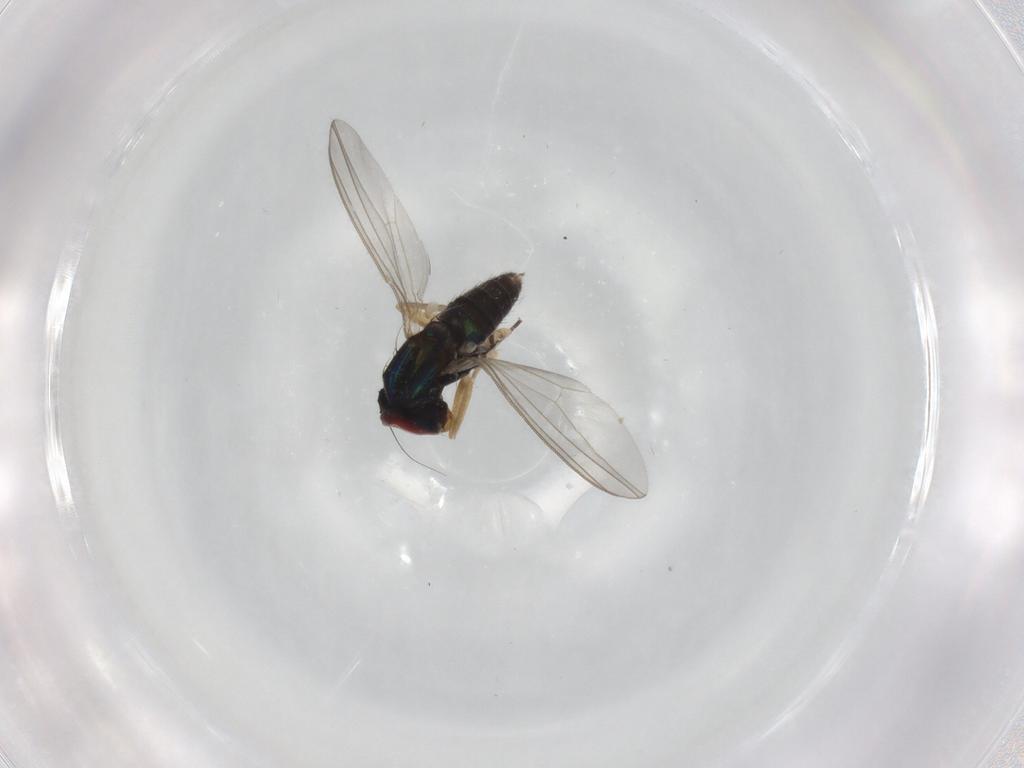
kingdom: Animalia
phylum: Arthropoda
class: Insecta
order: Diptera
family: Dolichopodidae
